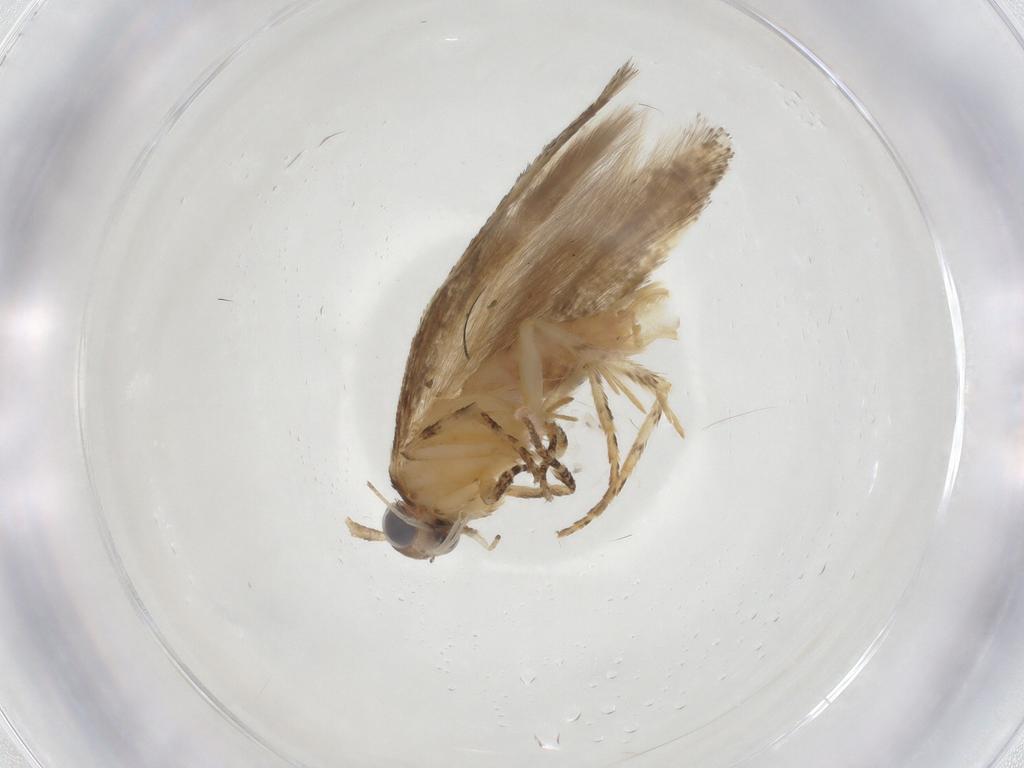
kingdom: Animalia
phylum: Arthropoda
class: Insecta
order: Lepidoptera
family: Gelechiidae
